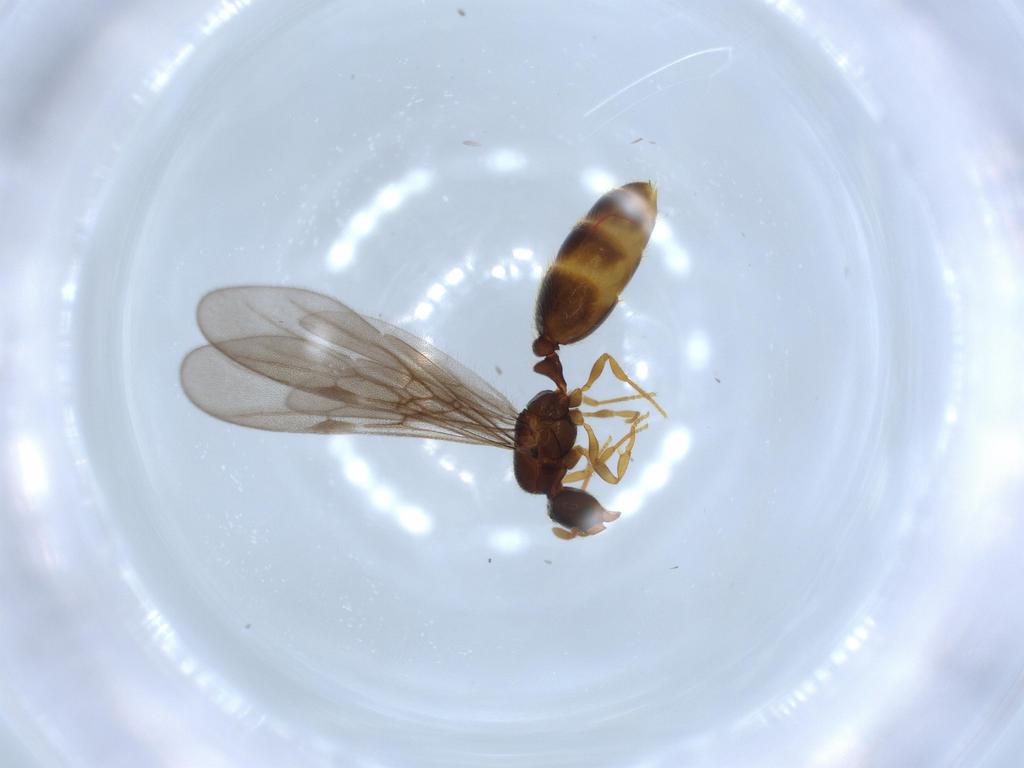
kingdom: Animalia
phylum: Arthropoda
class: Insecta
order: Hymenoptera
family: Formicidae
